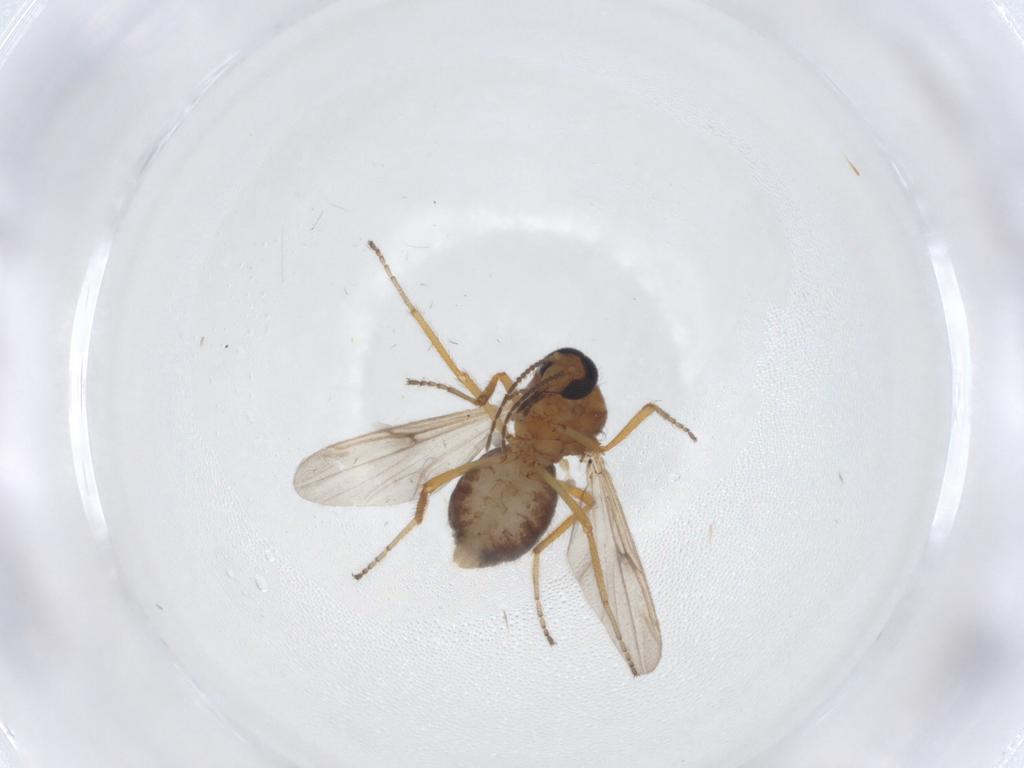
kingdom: Animalia
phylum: Arthropoda
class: Insecta
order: Diptera
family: Ceratopogonidae
